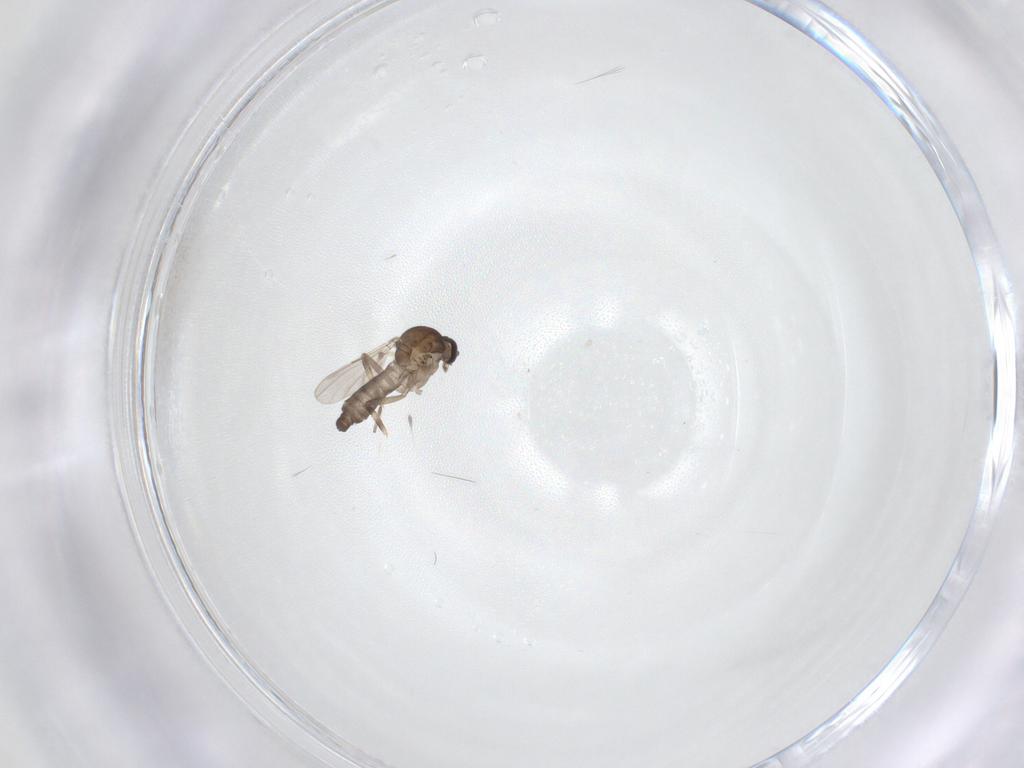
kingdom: Animalia
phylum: Arthropoda
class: Insecta
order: Diptera
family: Ceratopogonidae
